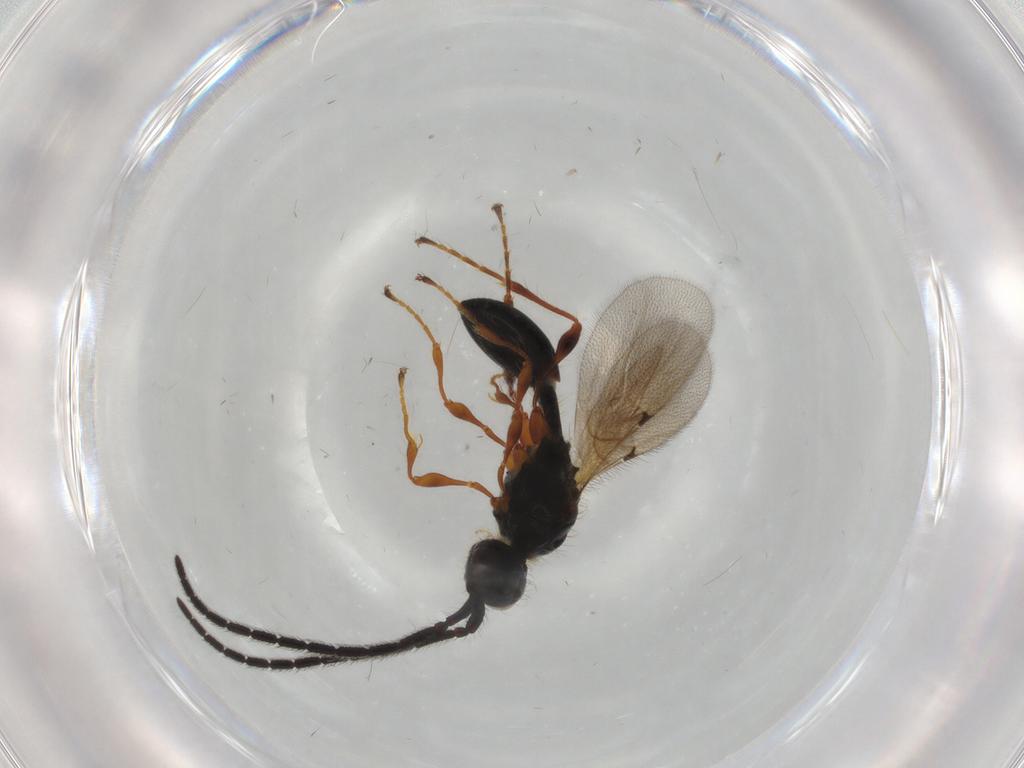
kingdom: Animalia
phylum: Arthropoda
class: Insecta
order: Hymenoptera
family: Diapriidae
